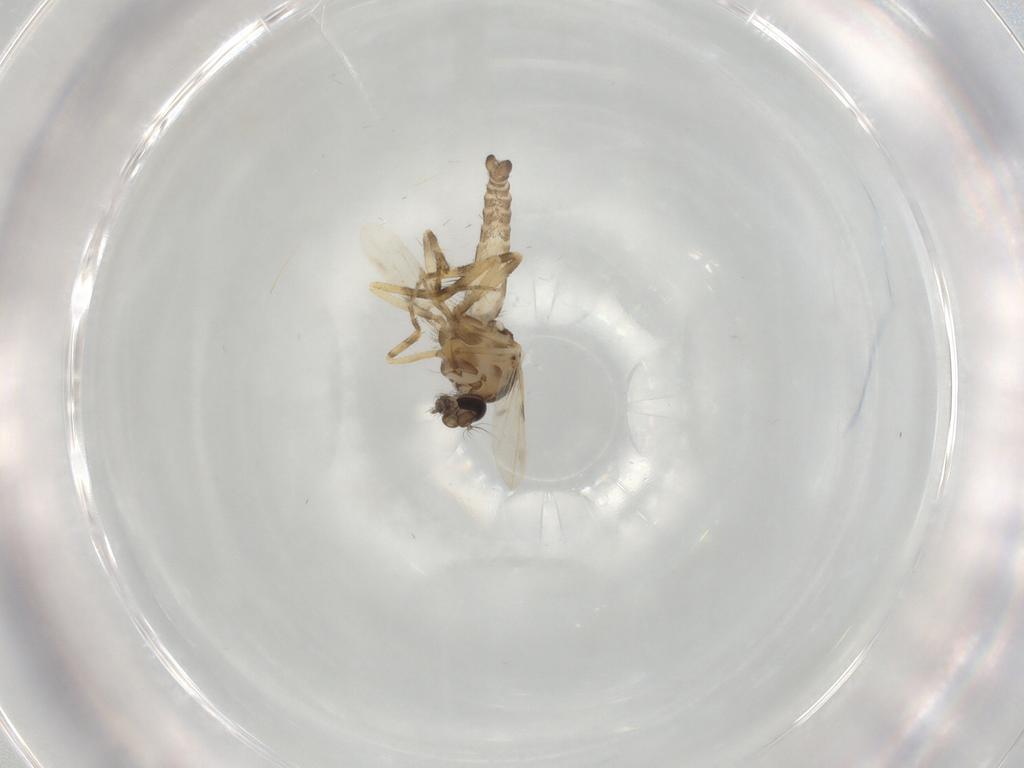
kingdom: Animalia
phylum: Arthropoda
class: Insecta
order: Diptera
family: Ceratopogonidae
